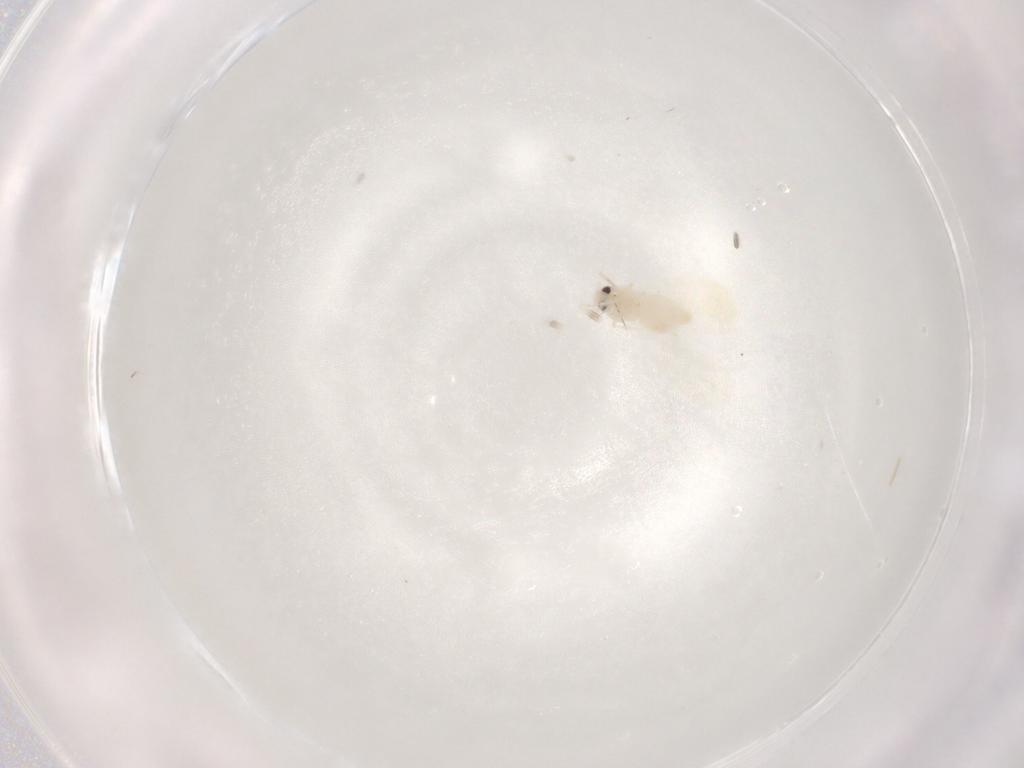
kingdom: Animalia
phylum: Arthropoda
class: Insecta
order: Hemiptera
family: Aleyrodidae
